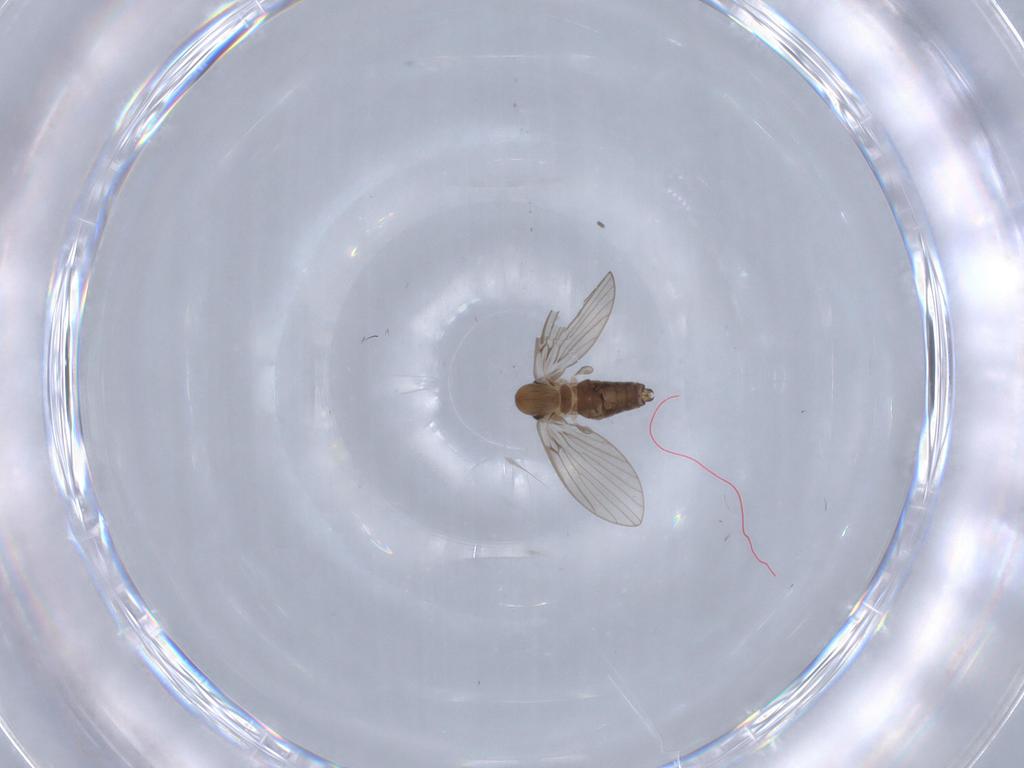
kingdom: Animalia
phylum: Arthropoda
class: Insecta
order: Diptera
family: Psychodidae
